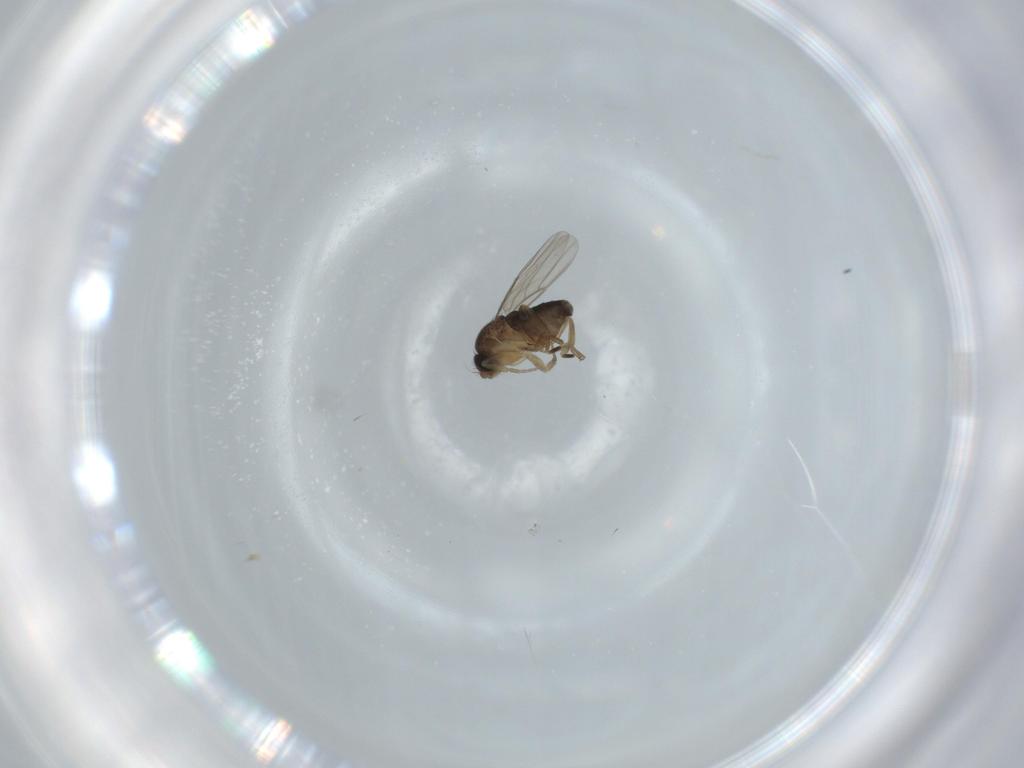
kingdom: Animalia
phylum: Arthropoda
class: Insecta
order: Diptera
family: Phoridae
